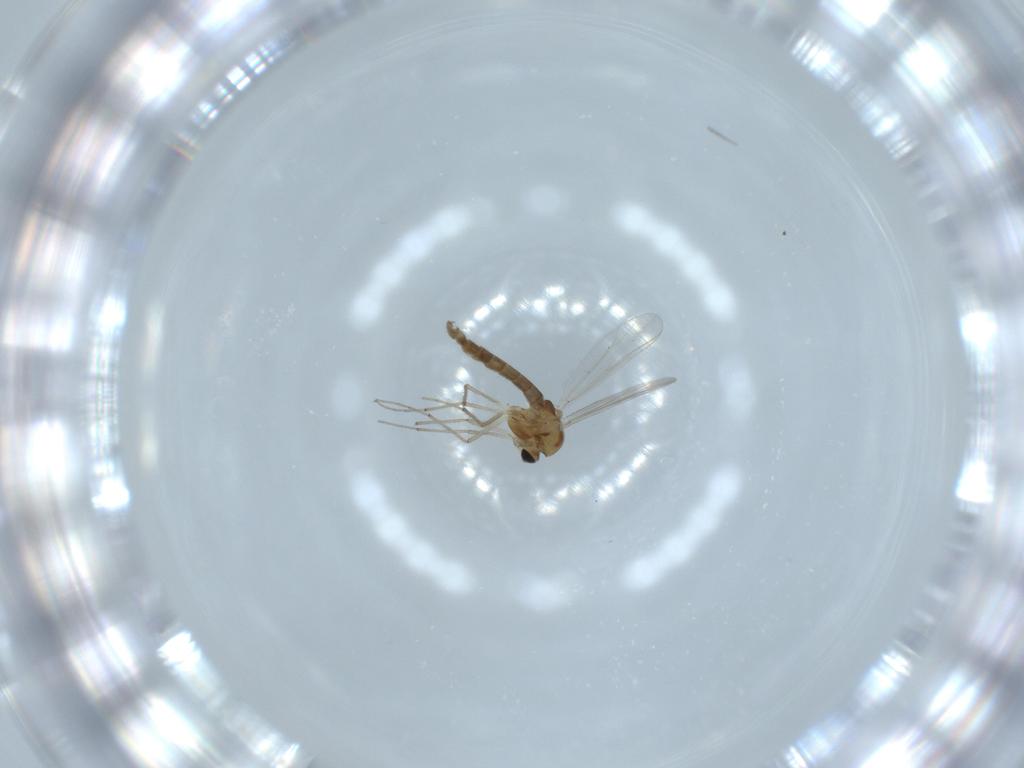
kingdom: Animalia
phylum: Arthropoda
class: Insecta
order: Diptera
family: Chironomidae
